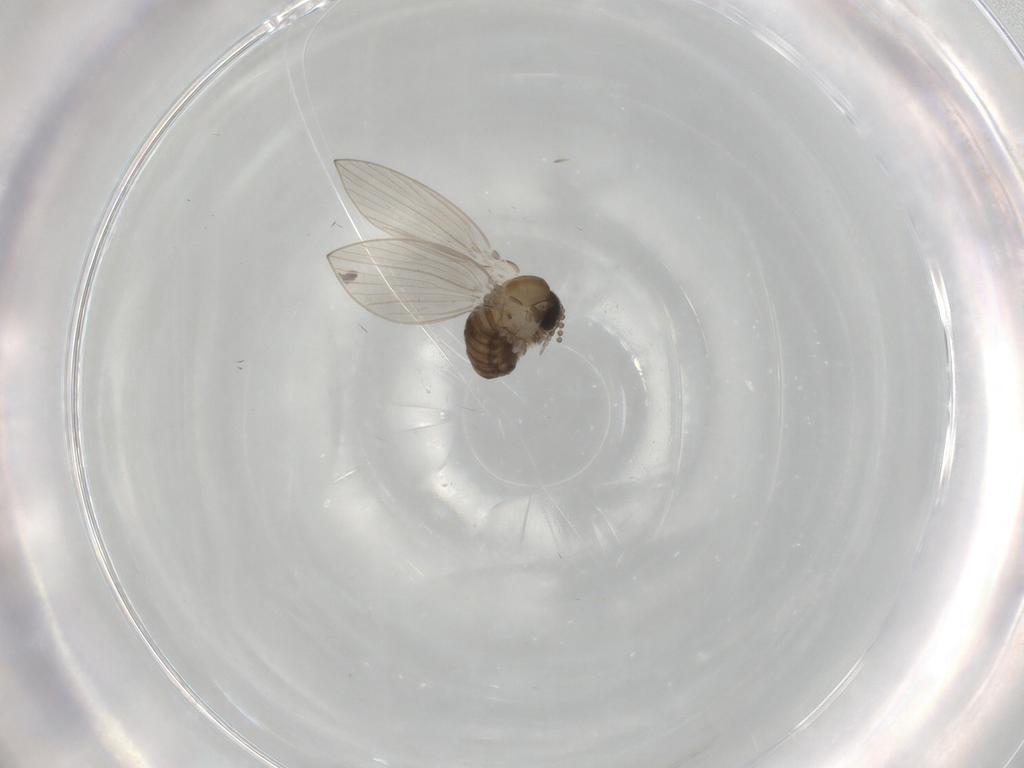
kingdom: Animalia
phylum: Arthropoda
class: Insecta
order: Diptera
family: Psychodidae
